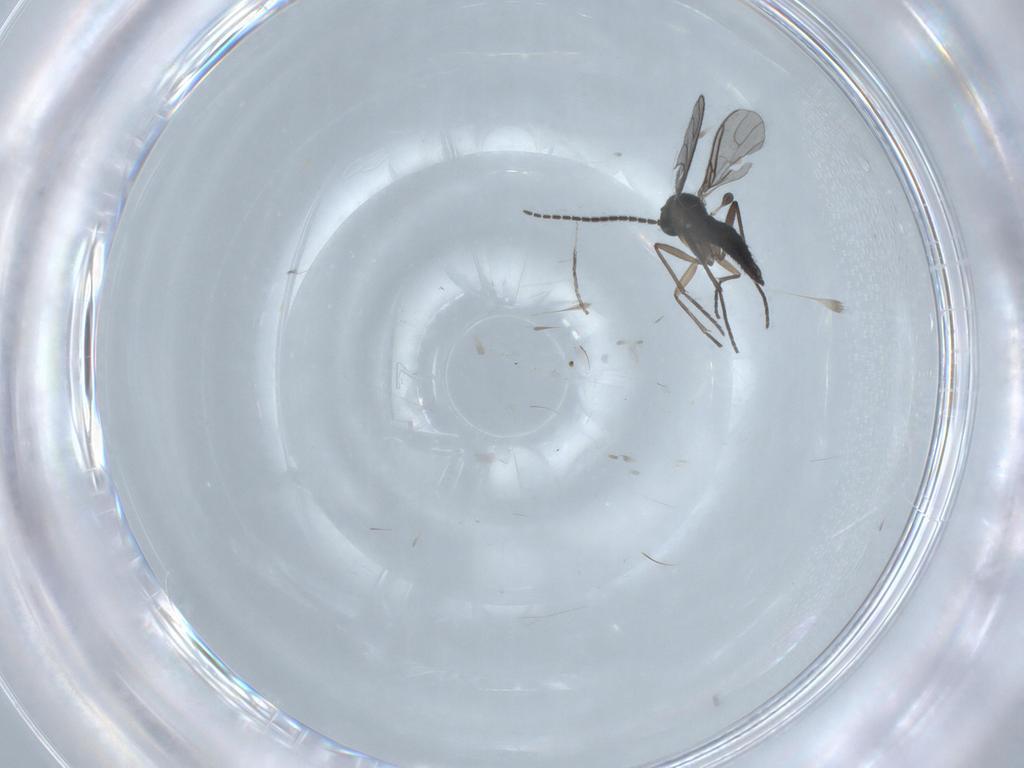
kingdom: Animalia
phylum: Arthropoda
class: Insecta
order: Diptera
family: Sciaridae
